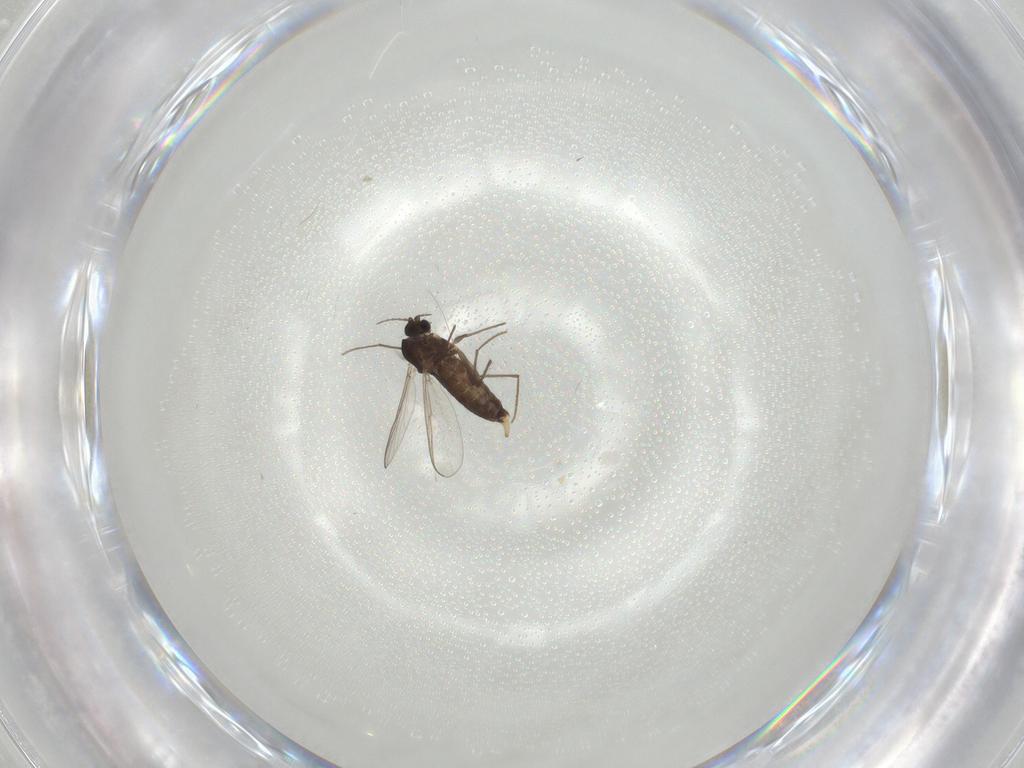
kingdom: Animalia
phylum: Arthropoda
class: Insecta
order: Diptera
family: Chironomidae
